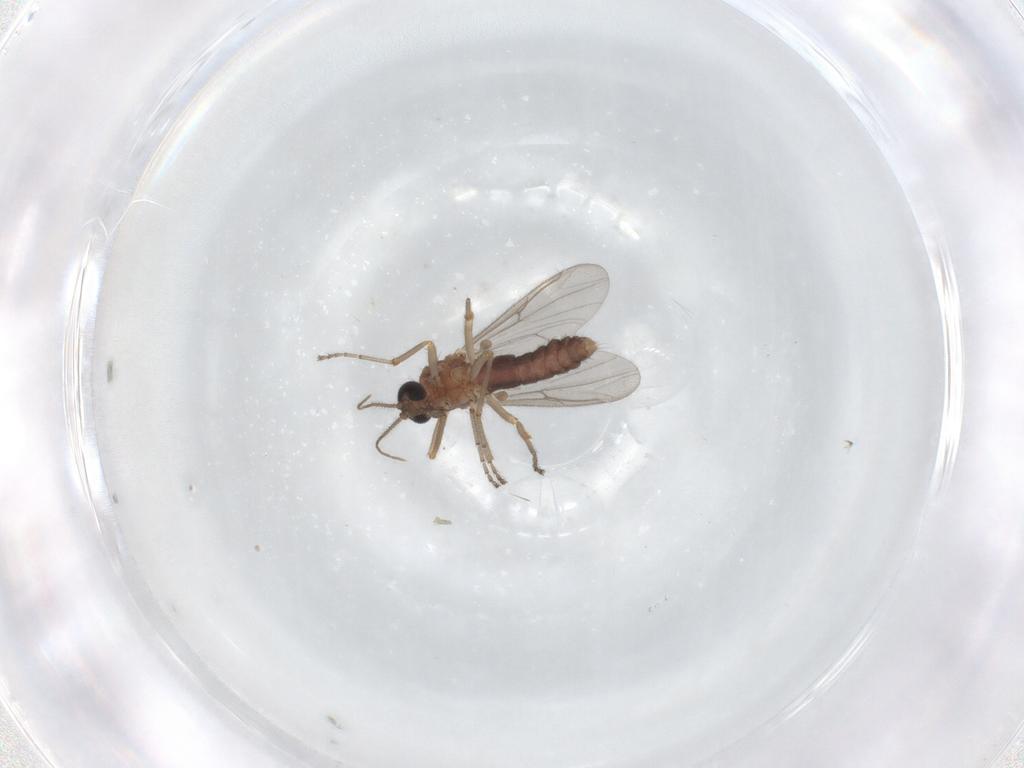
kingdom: Animalia
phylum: Arthropoda
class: Insecta
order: Diptera
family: Ceratopogonidae
